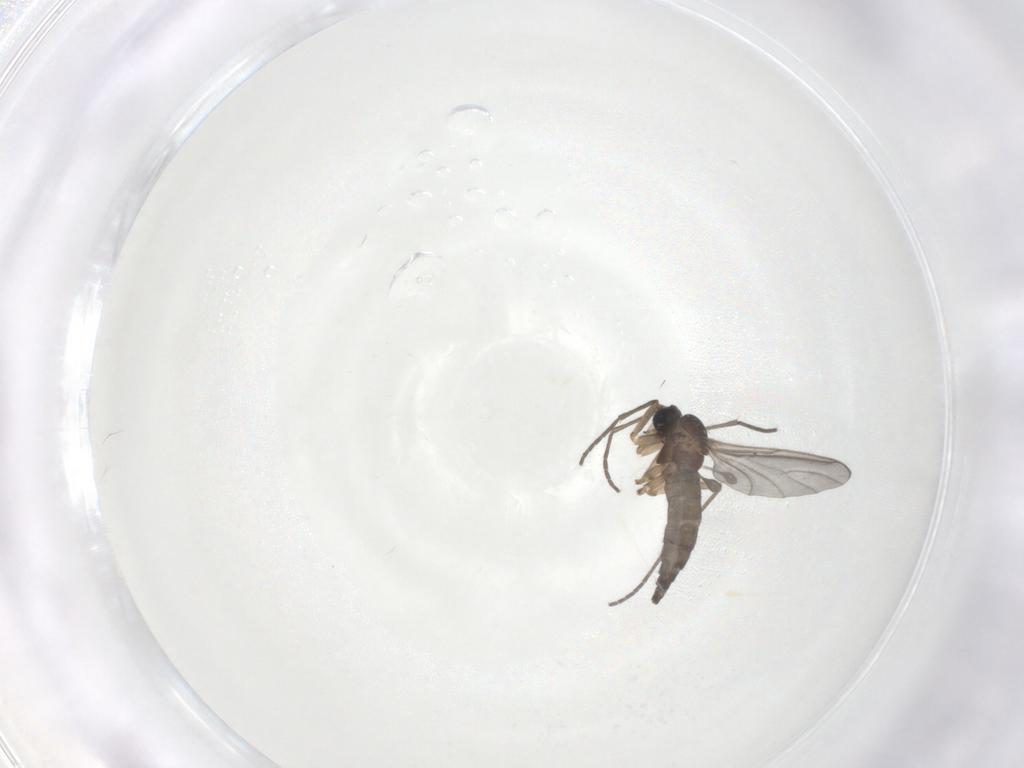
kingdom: Animalia
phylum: Arthropoda
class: Insecta
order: Diptera
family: Sciaridae
